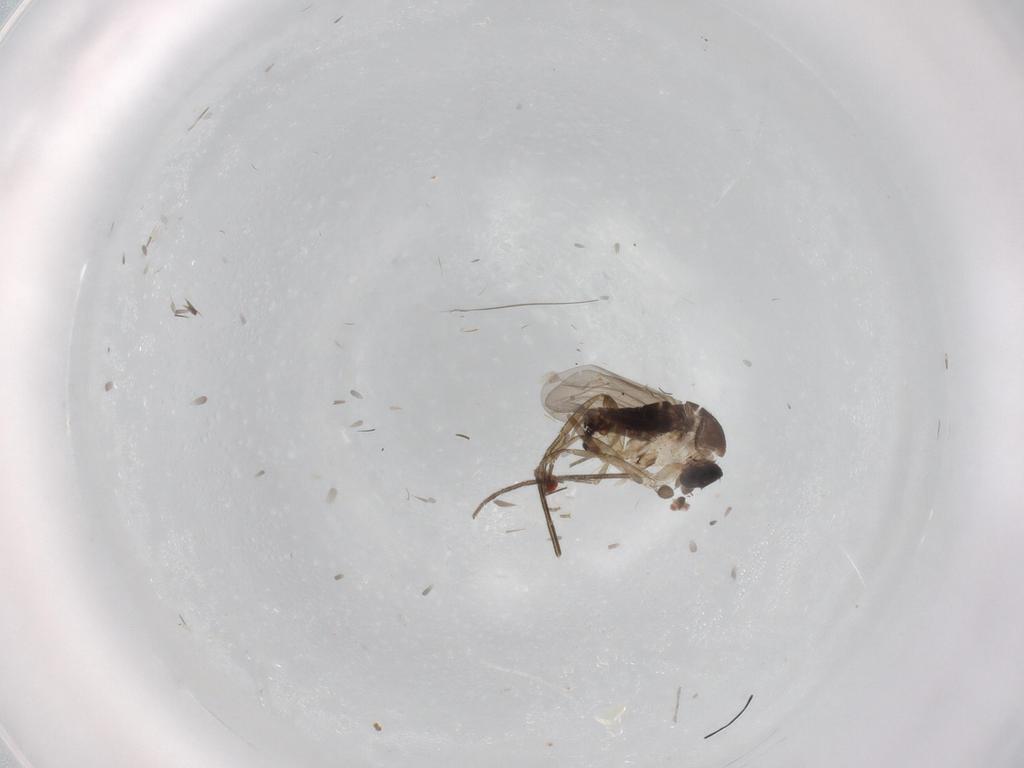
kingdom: Animalia
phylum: Arthropoda
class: Insecta
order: Diptera
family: Mycetophilidae
